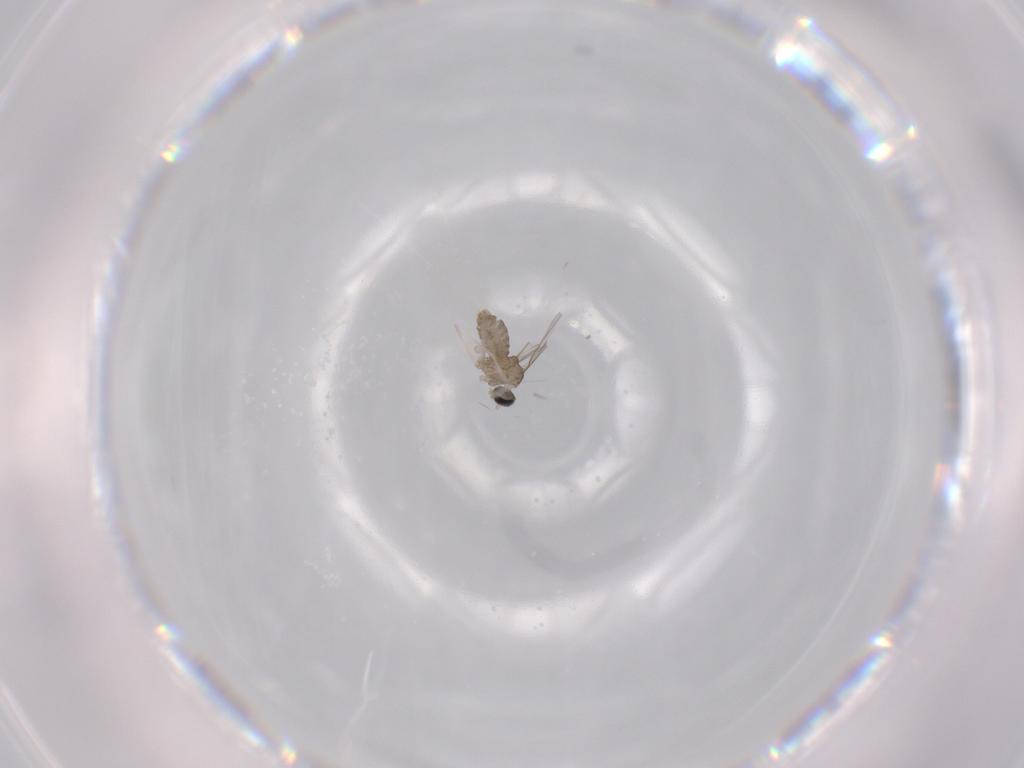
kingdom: Animalia
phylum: Arthropoda
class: Insecta
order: Diptera
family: Cecidomyiidae
